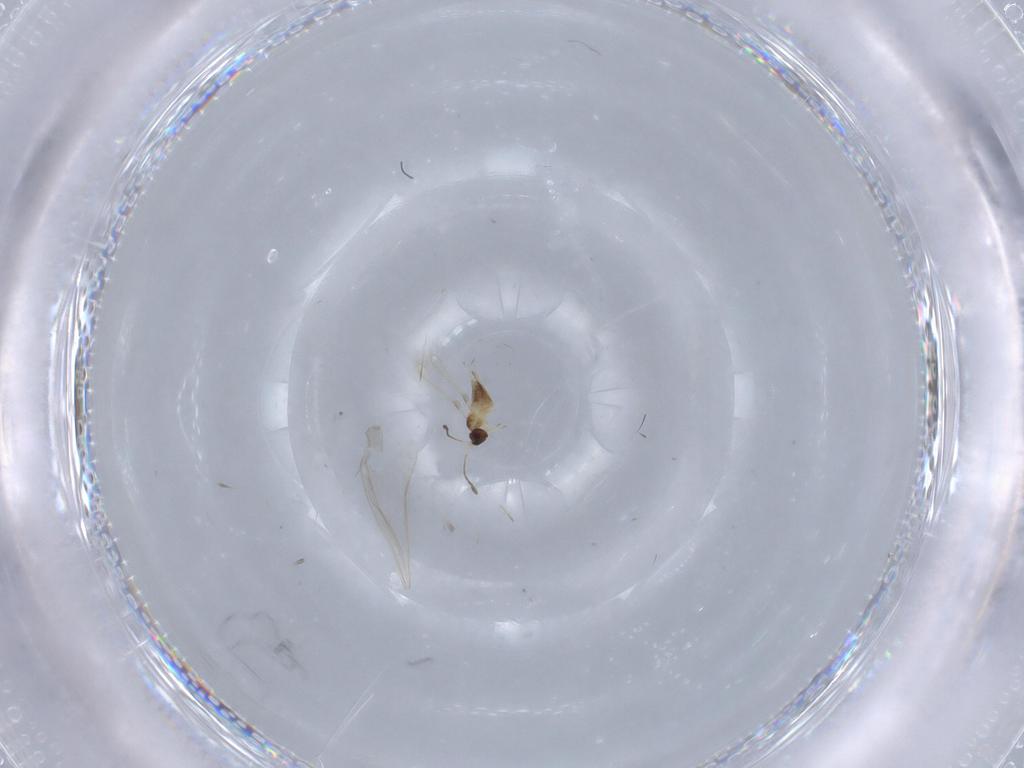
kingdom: Animalia
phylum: Arthropoda
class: Insecta
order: Hymenoptera
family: Mymaridae
